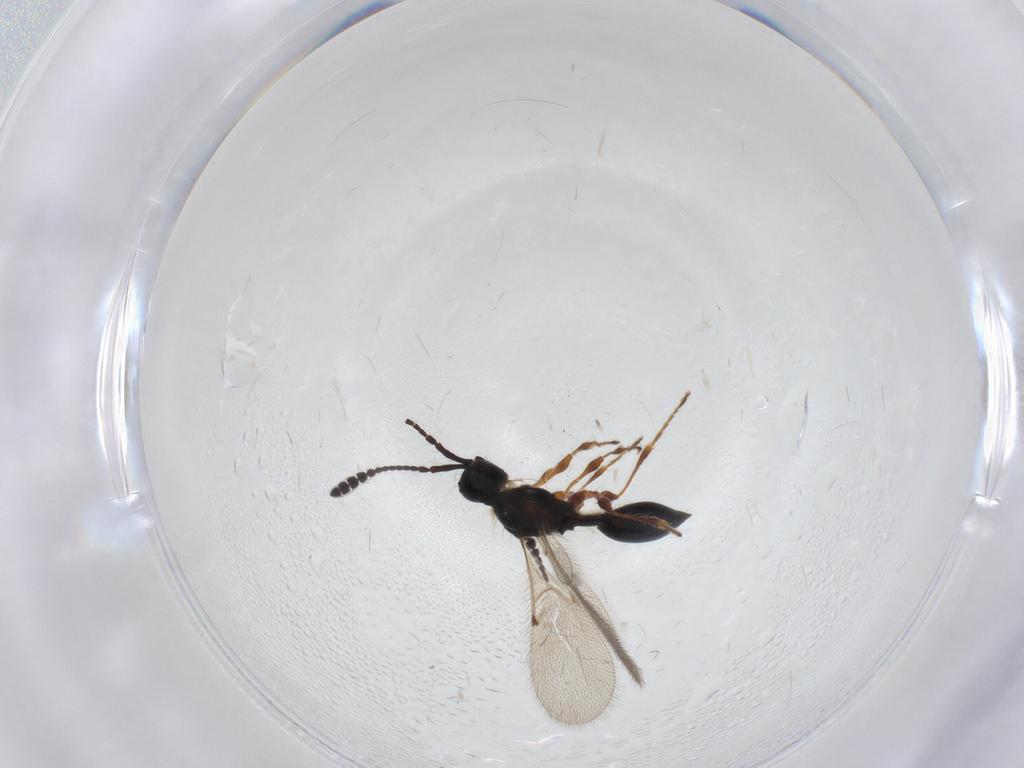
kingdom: Animalia
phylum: Arthropoda
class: Insecta
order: Hymenoptera
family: Diapriidae
